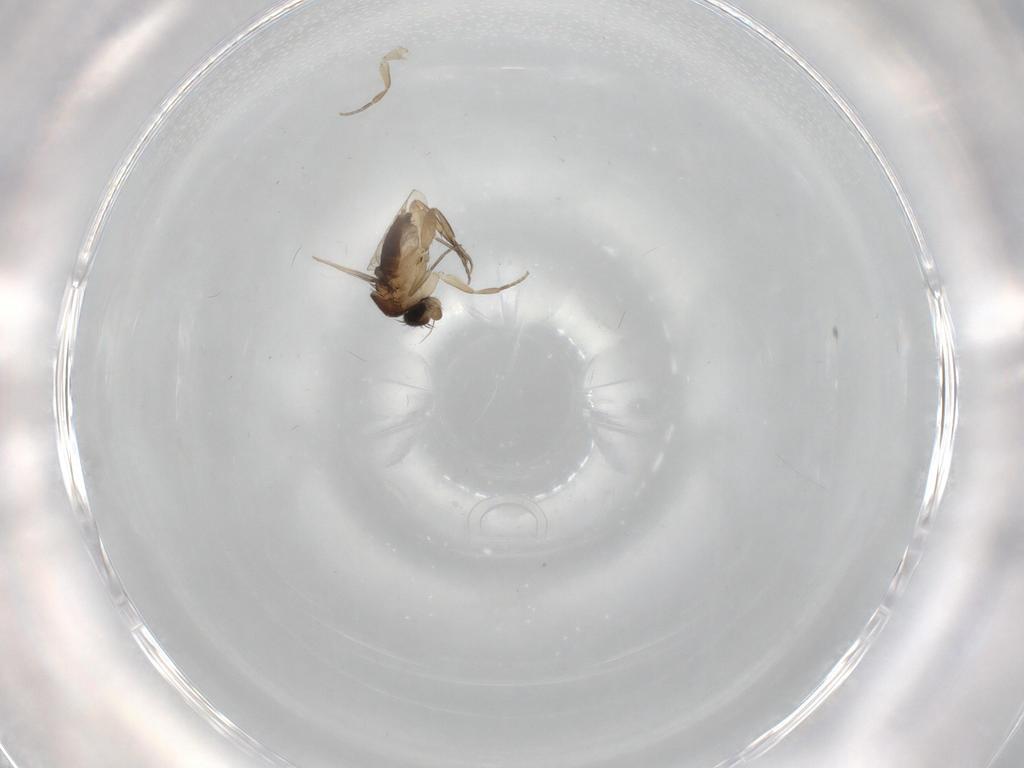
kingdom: Animalia
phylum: Arthropoda
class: Insecta
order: Diptera
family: Phoridae
